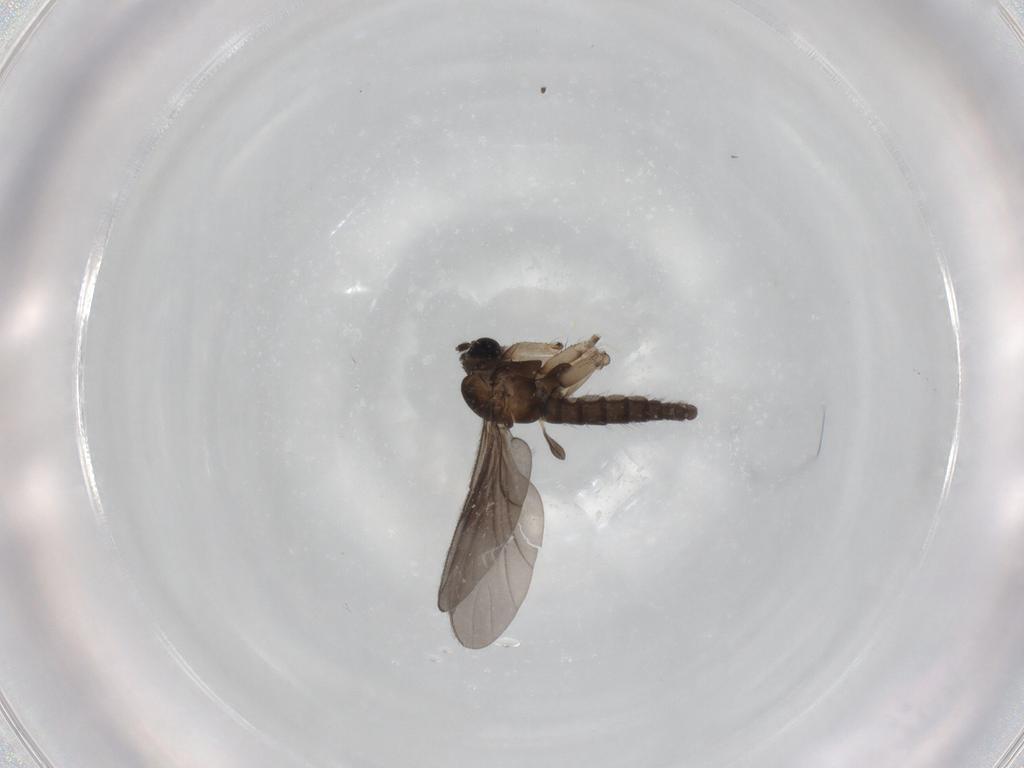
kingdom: Animalia
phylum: Arthropoda
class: Insecta
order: Diptera
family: Sciaridae
